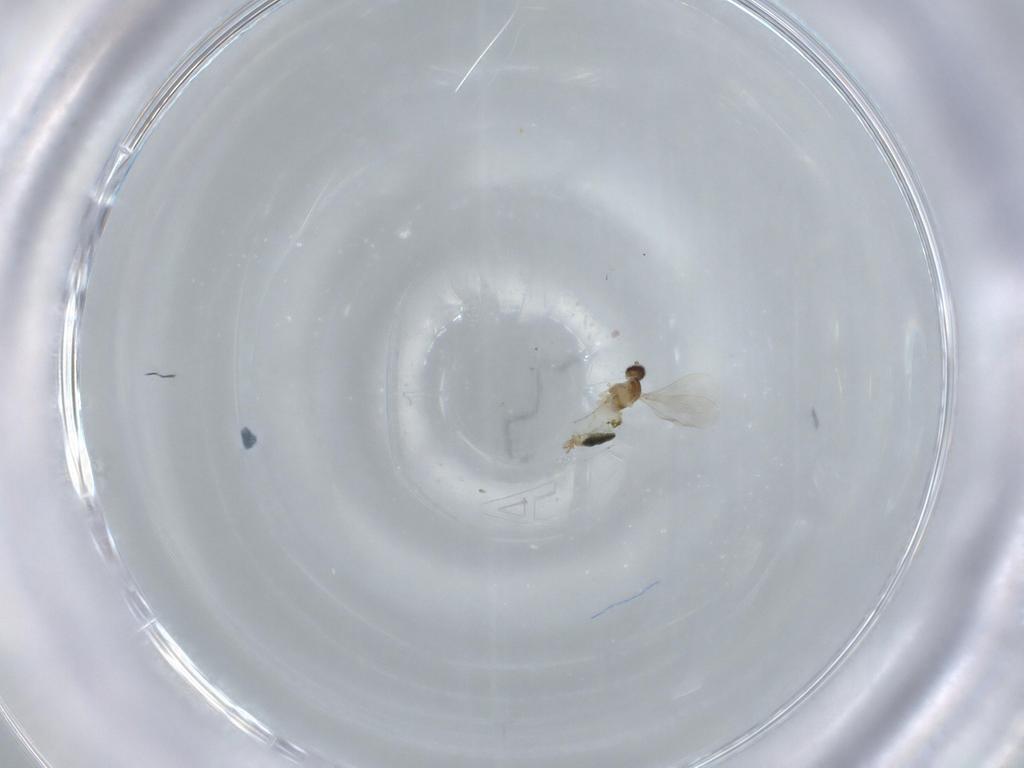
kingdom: Animalia
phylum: Arthropoda
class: Insecta
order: Diptera
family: Cecidomyiidae
